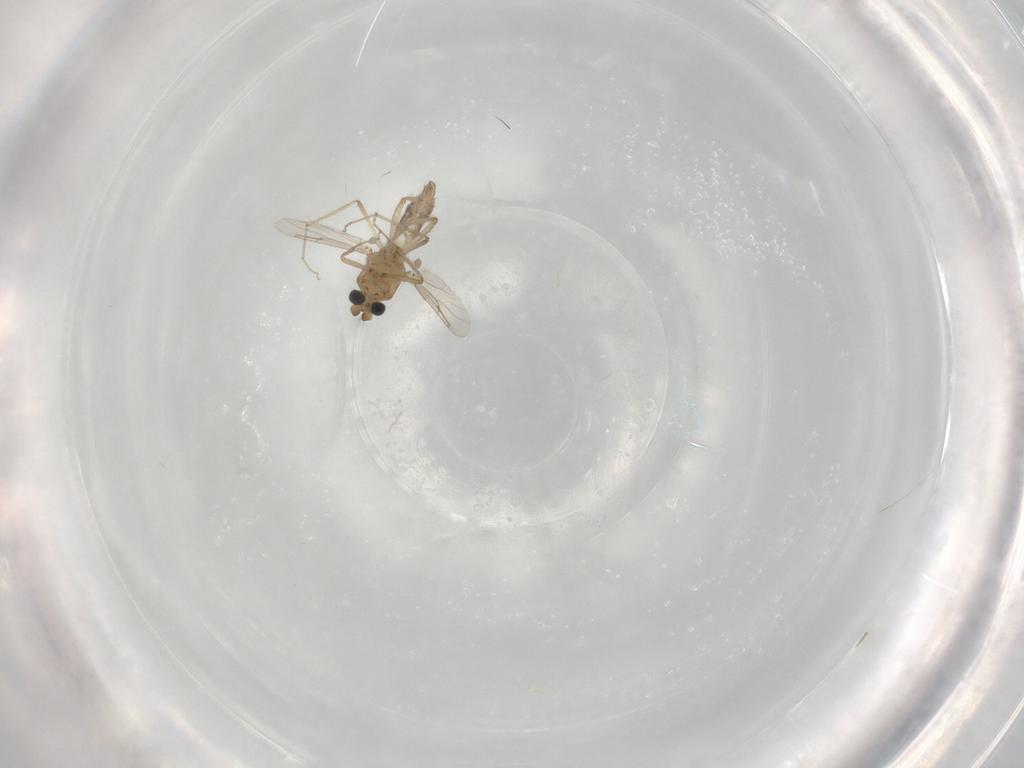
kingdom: Animalia
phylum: Arthropoda
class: Insecta
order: Diptera
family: Ceratopogonidae
